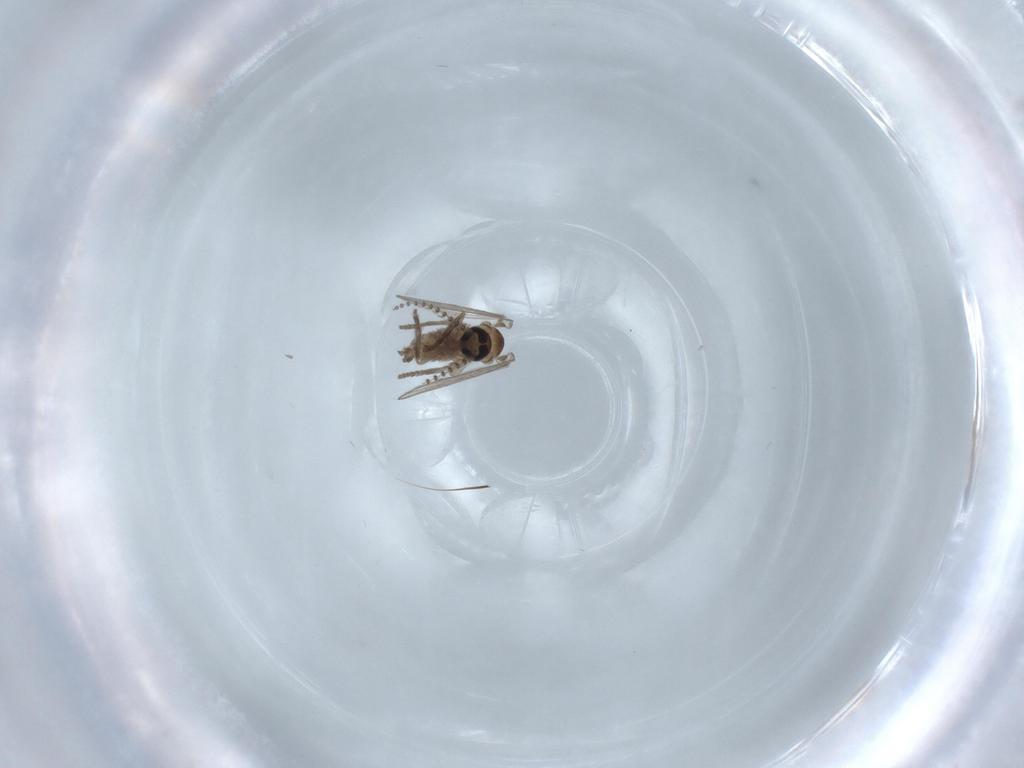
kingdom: Animalia
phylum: Arthropoda
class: Insecta
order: Diptera
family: Psychodidae
